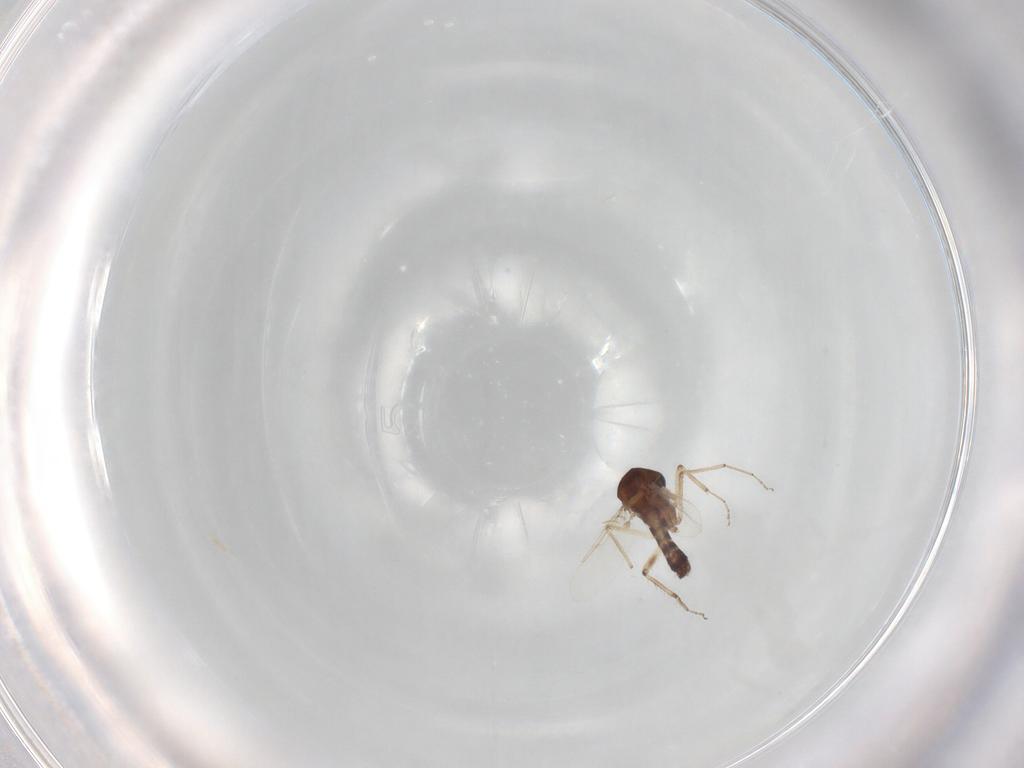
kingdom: Animalia
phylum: Arthropoda
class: Insecta
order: Diptera
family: Ceratopogonidae
